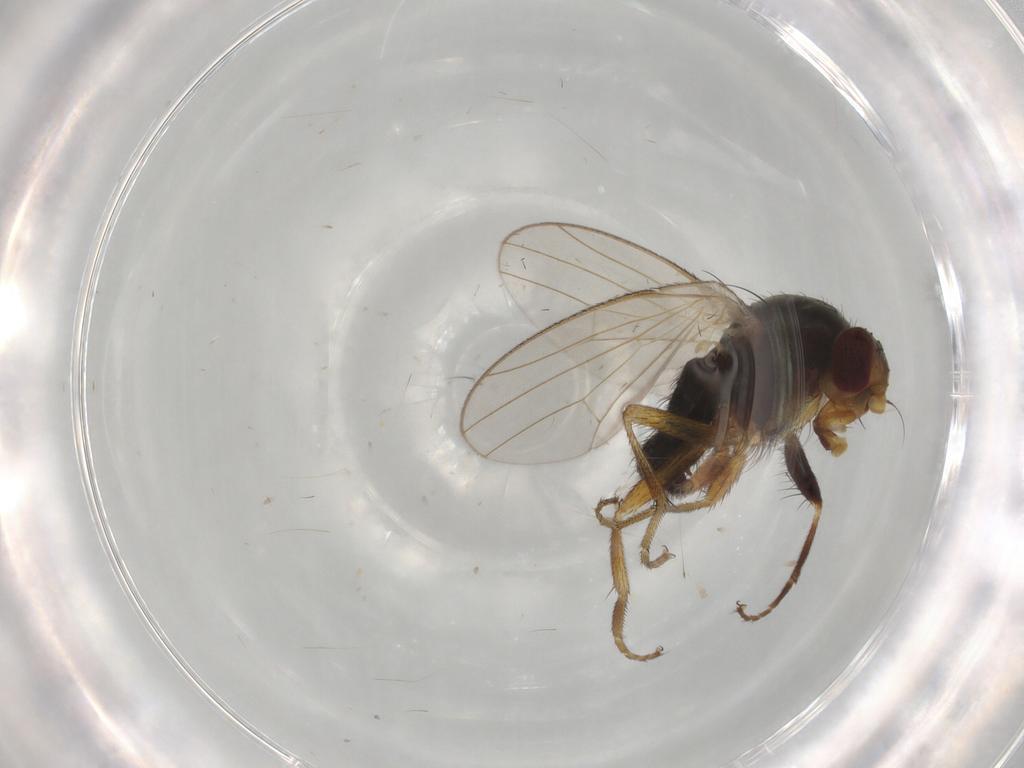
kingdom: Animalia
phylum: Arthropoda
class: Insecta
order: Diptera
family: Heleomyzidae
